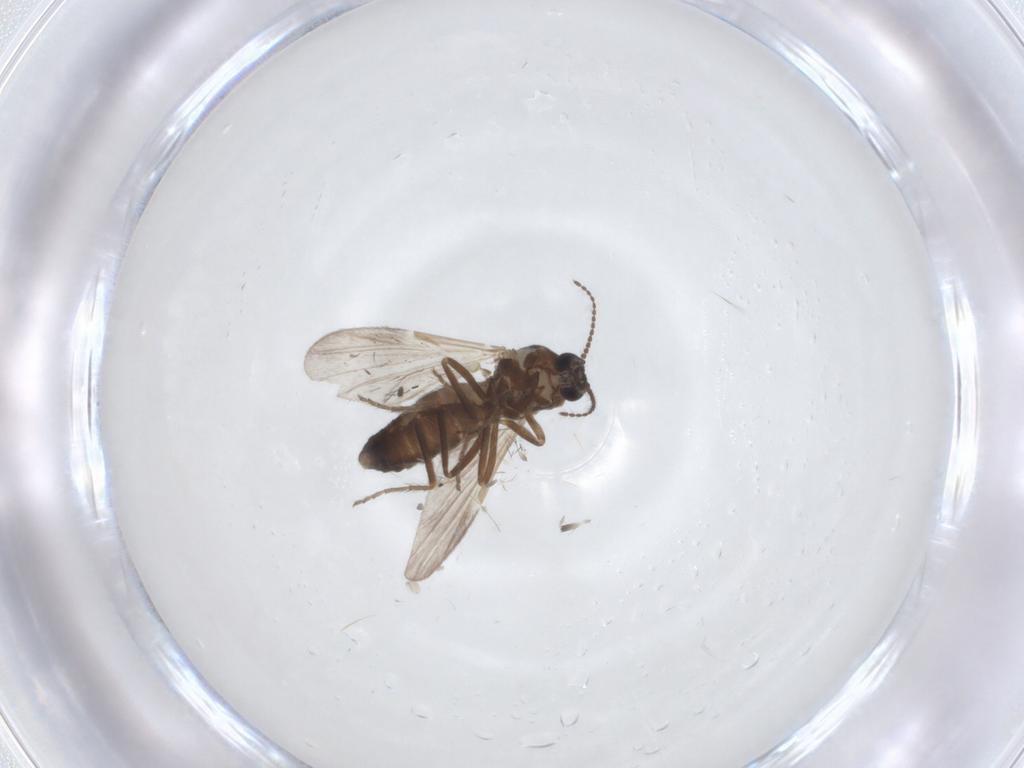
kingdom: Animalia
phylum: Arthropoda
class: Insecta
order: Diptera
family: Ceratopogonidae
